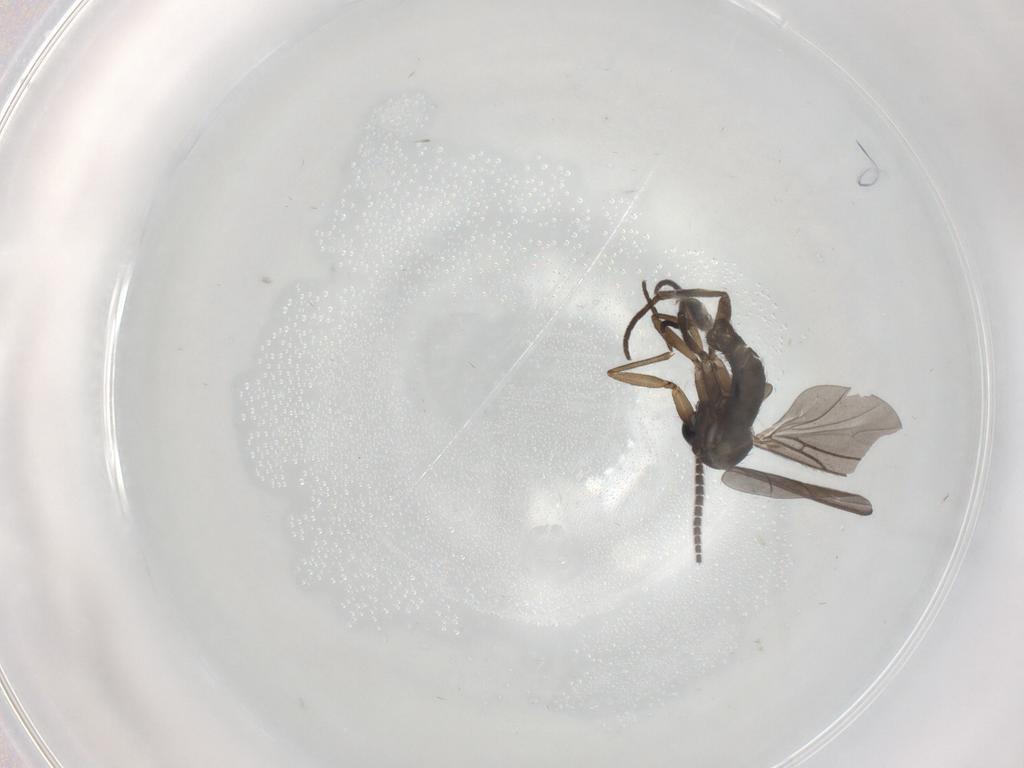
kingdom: Animalia
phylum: Arthropoda
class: Insecta
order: Diptera
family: Sciaridae
